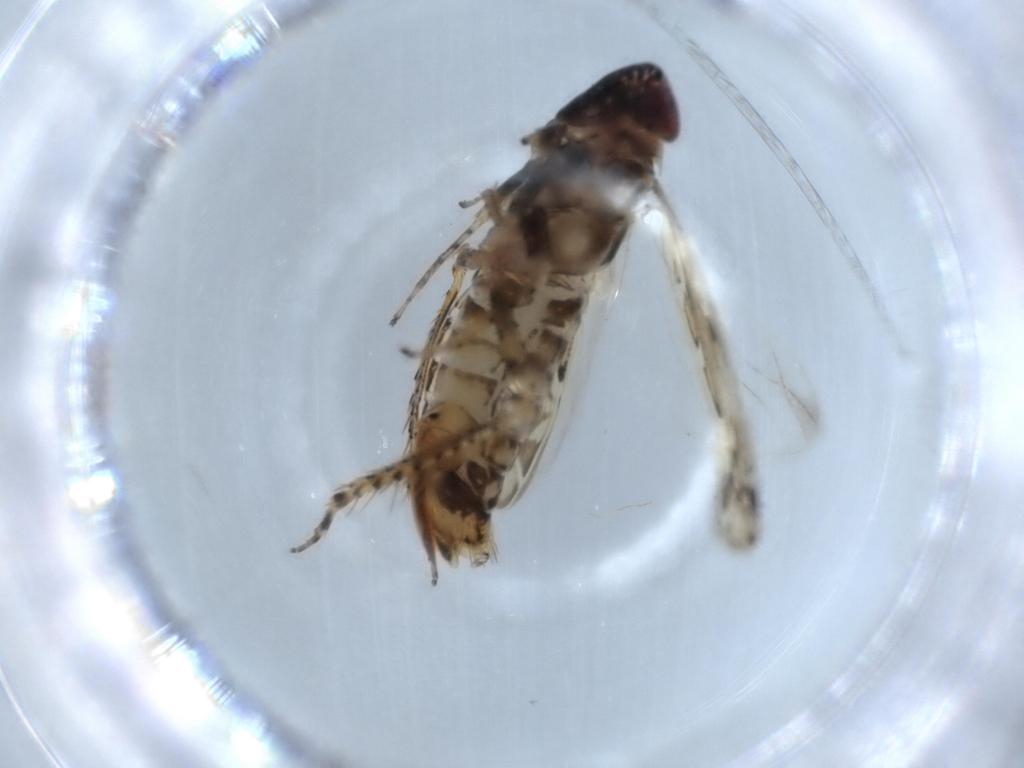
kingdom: Animalia
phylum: Arthropoda
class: Insecta
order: Hemiptera
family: Cicadellidae
